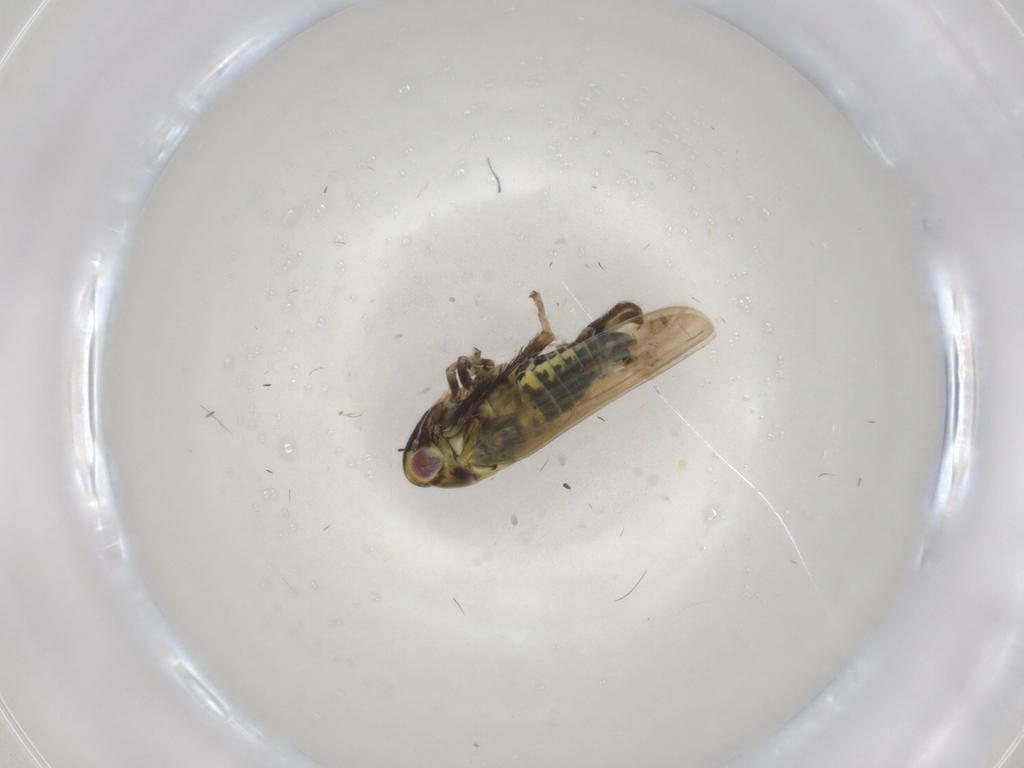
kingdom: Animalia
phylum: Arthropoda
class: Insecta
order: Hemiptera
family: Cicadellidae
